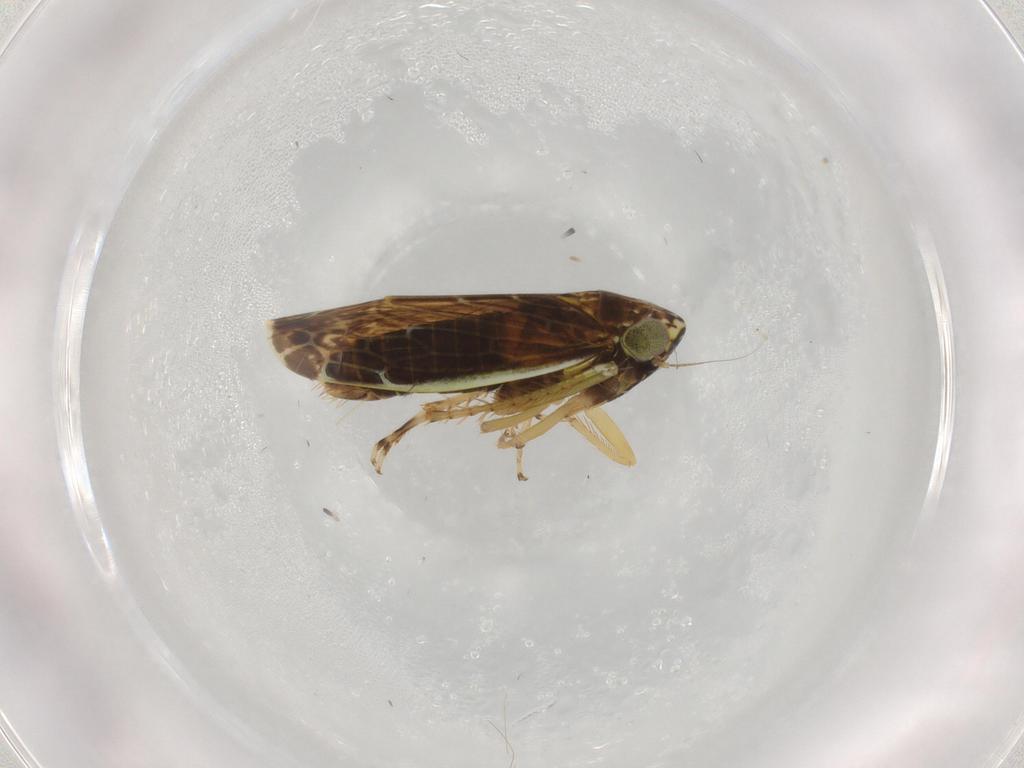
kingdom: Animalia
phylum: Arthropoda
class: Insecta
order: Hemiptera
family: Cicadellidae
